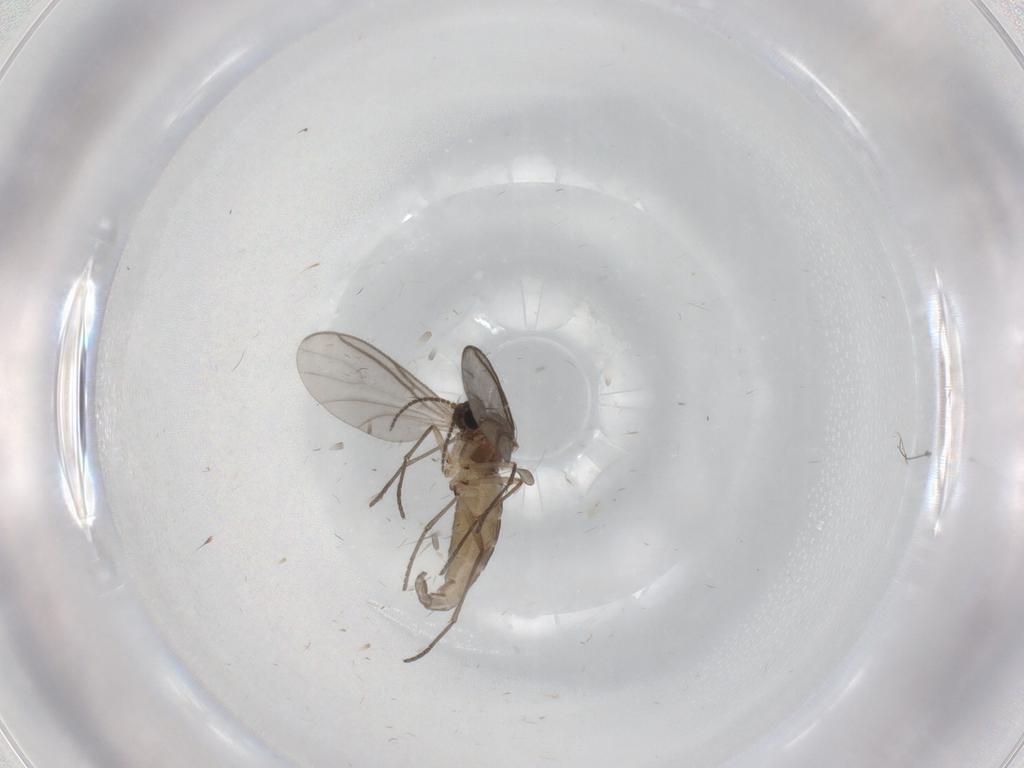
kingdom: Animalia
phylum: Arthropoda
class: Insecta
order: Diptera
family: Sciaridae
